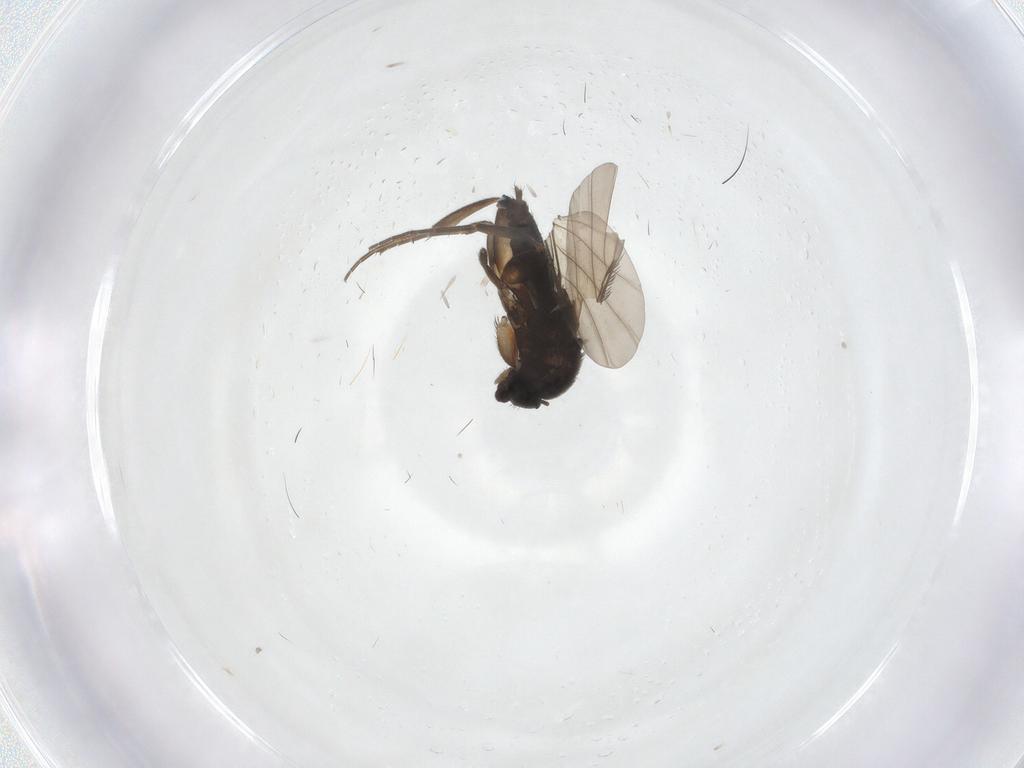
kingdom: Animalia
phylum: Arthropoda
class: Insecta
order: Diptera
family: Phoridae
